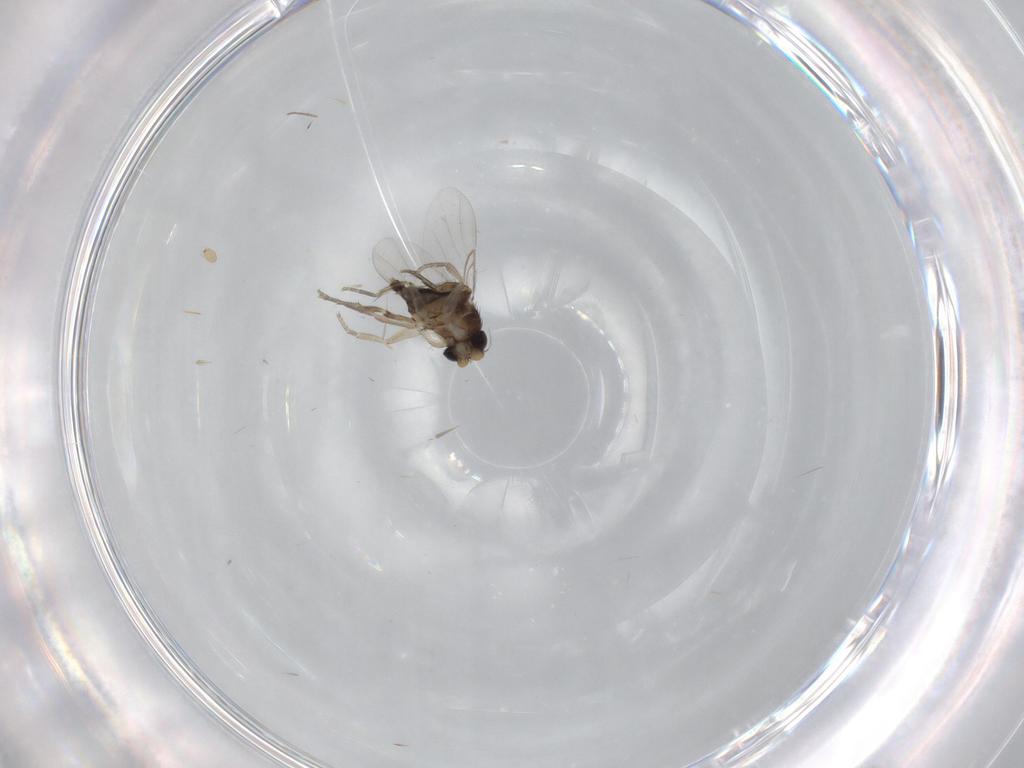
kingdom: Animalia
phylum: Arthropoda
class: Insecta
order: Diptera
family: Phoridae
